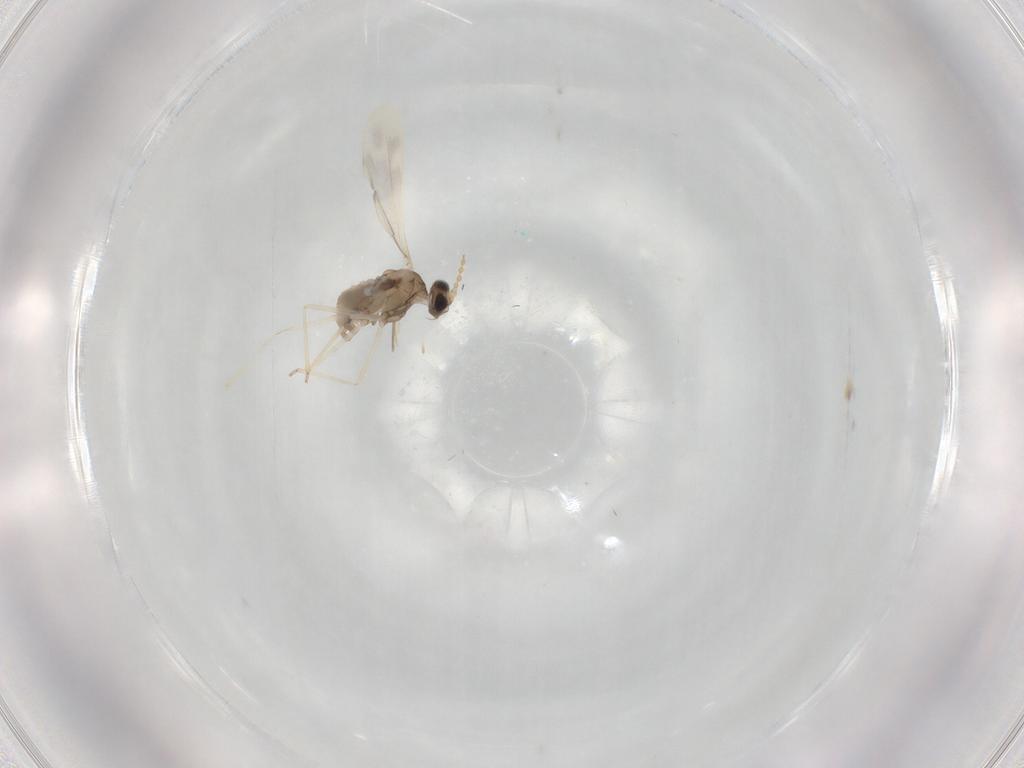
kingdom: Animalia
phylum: Arthropoda
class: Insecta
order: Diptera
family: Cecidomyiidae
